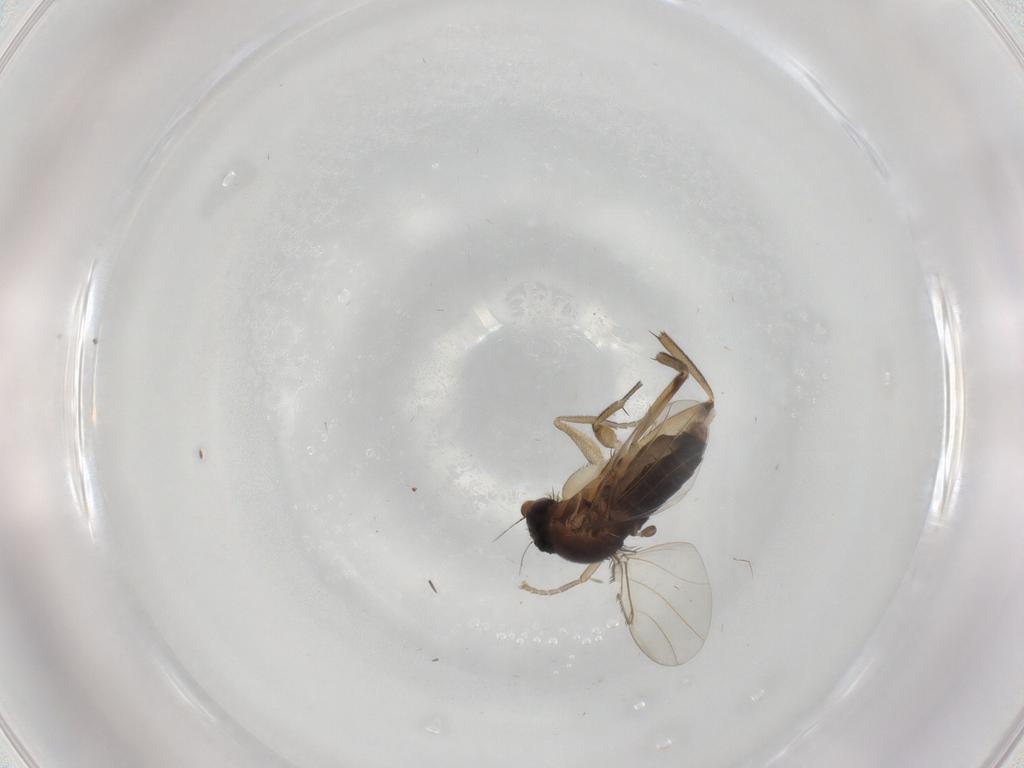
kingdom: Animalia
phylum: Arthropoda
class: Insecta
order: Diptera
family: Phoridae
